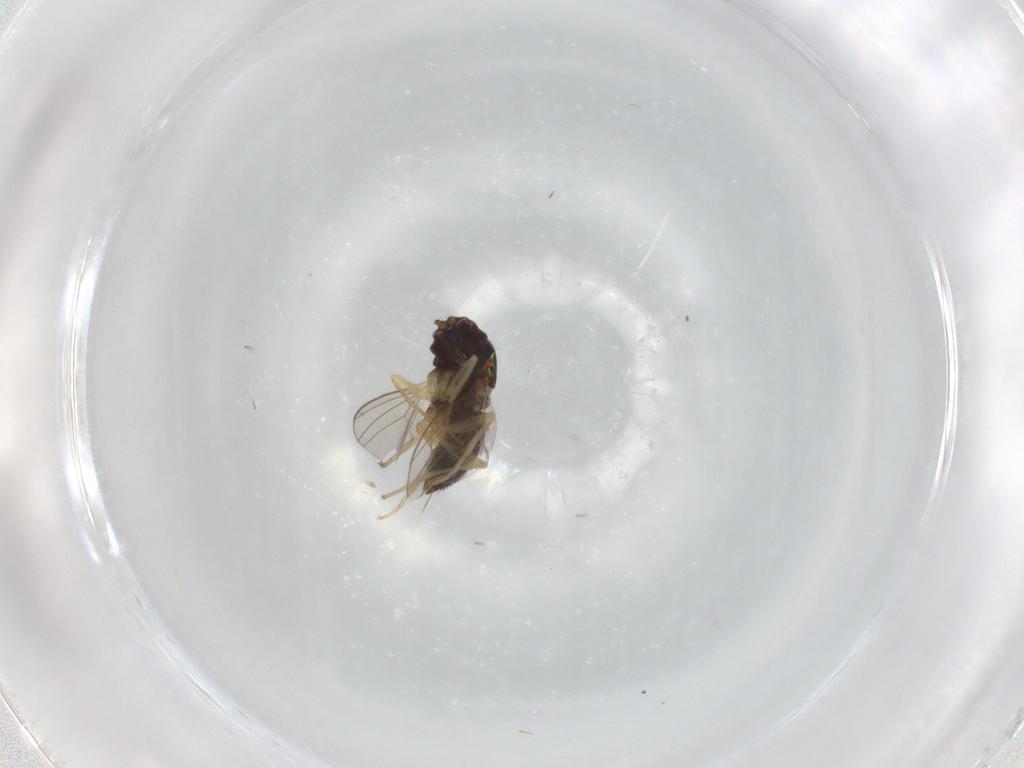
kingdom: Animalia
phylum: Arthropoda
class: Insecta
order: Diptera
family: Dolichopodidae
